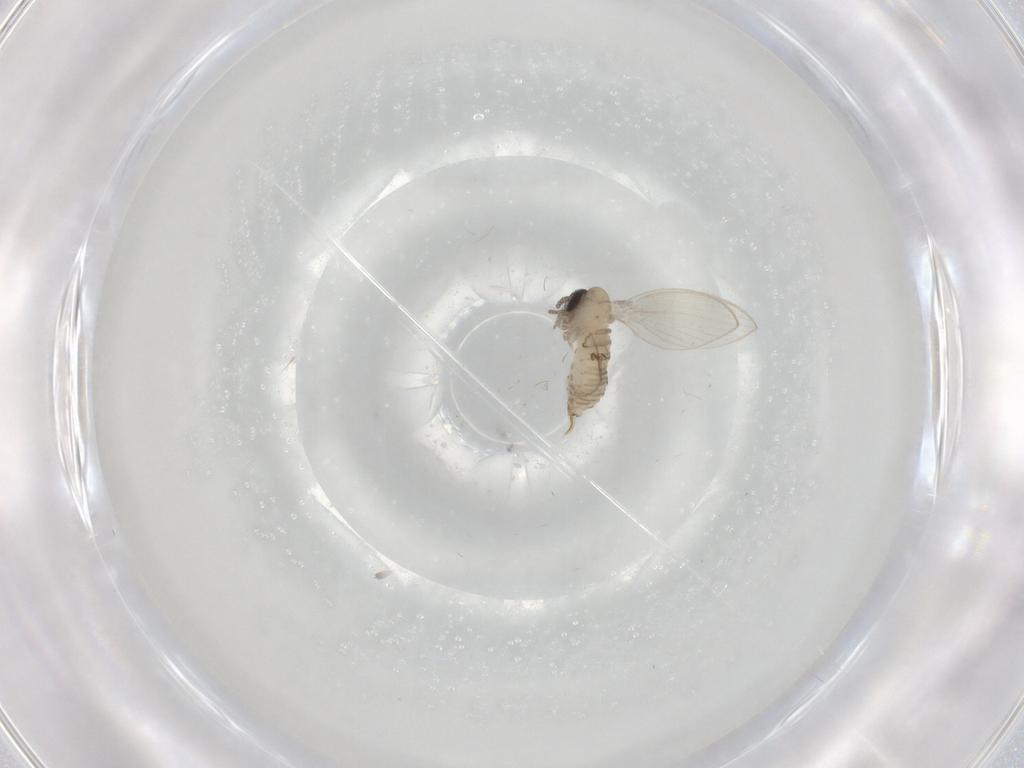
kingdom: Animalia
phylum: Arthropoda
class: Insecta
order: Diptera
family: Psychodidae
